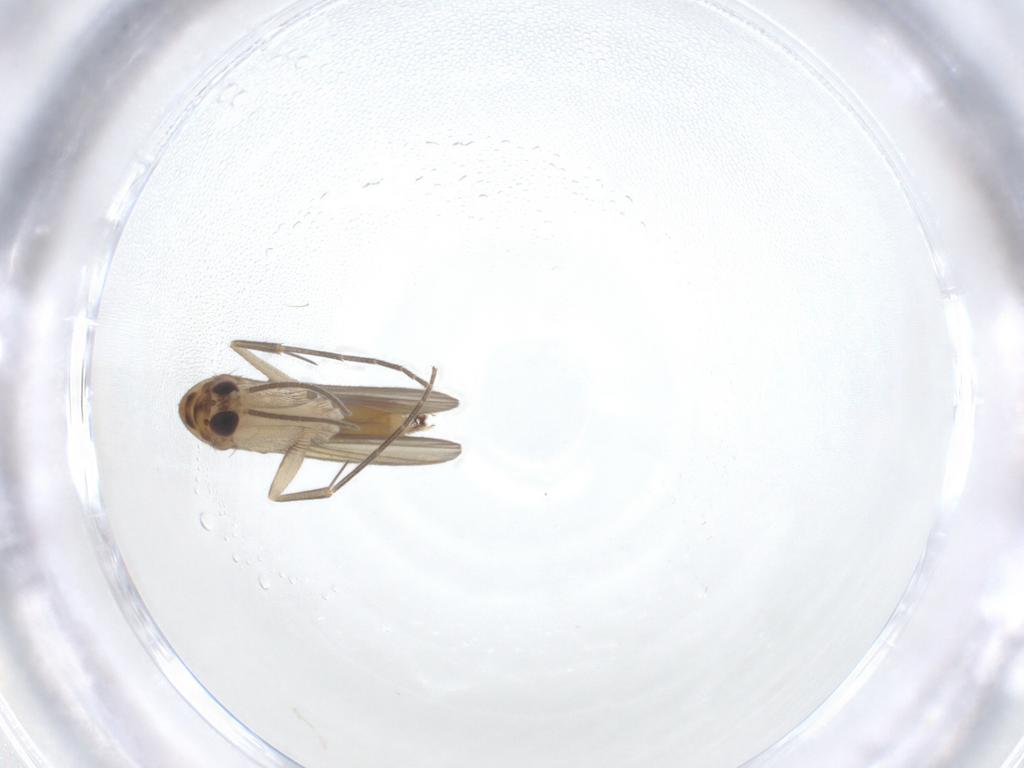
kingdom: Animalia
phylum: Arthropoda
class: Insecta
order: Diptera
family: Mycetophilidae
